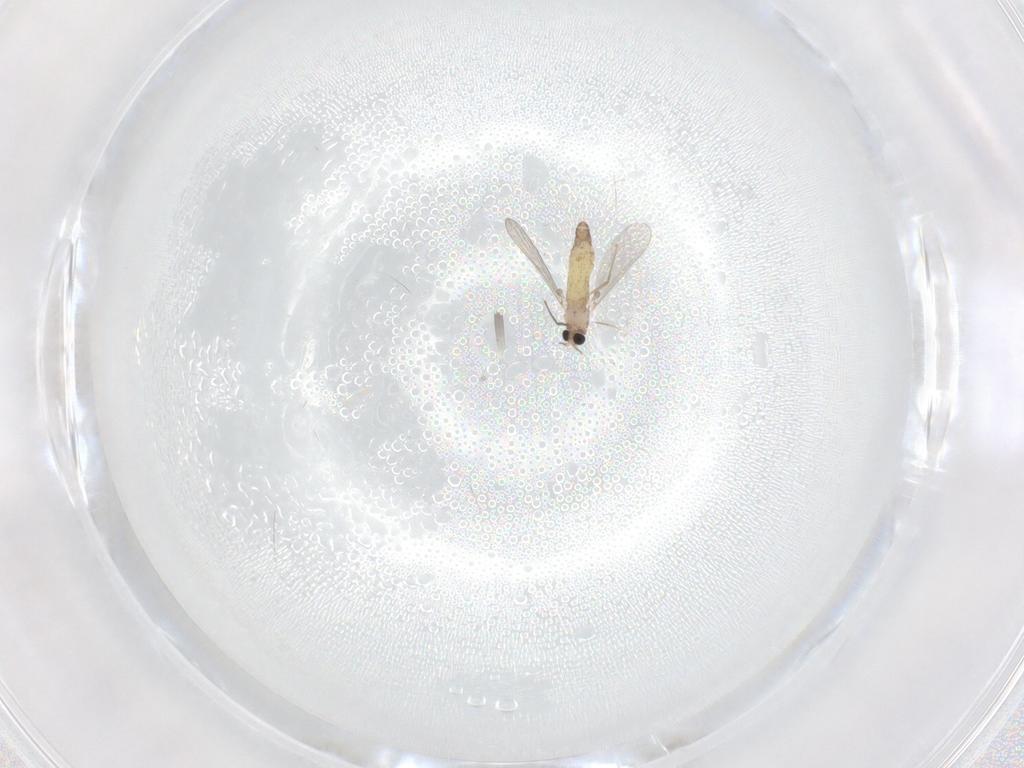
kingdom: Animalia
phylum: Arthropoda
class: Insecta
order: Diptera
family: Chironomidae
